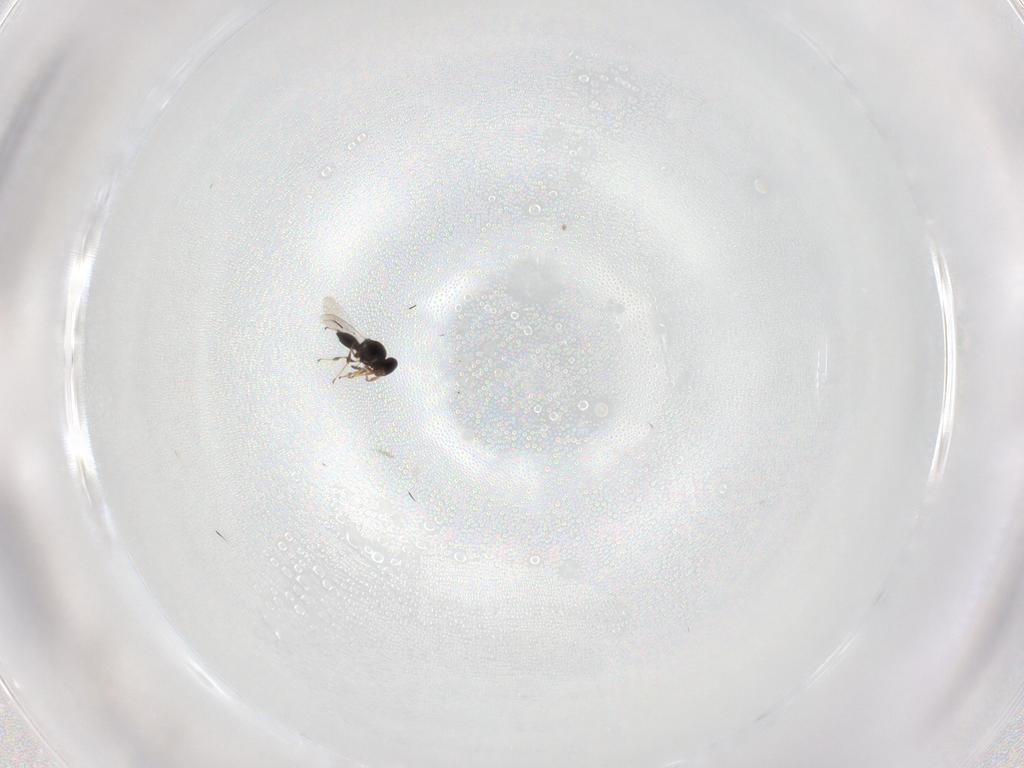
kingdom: Animalia
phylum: Arthropoda
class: Insecta
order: Hymenoptera
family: Platygastridae
